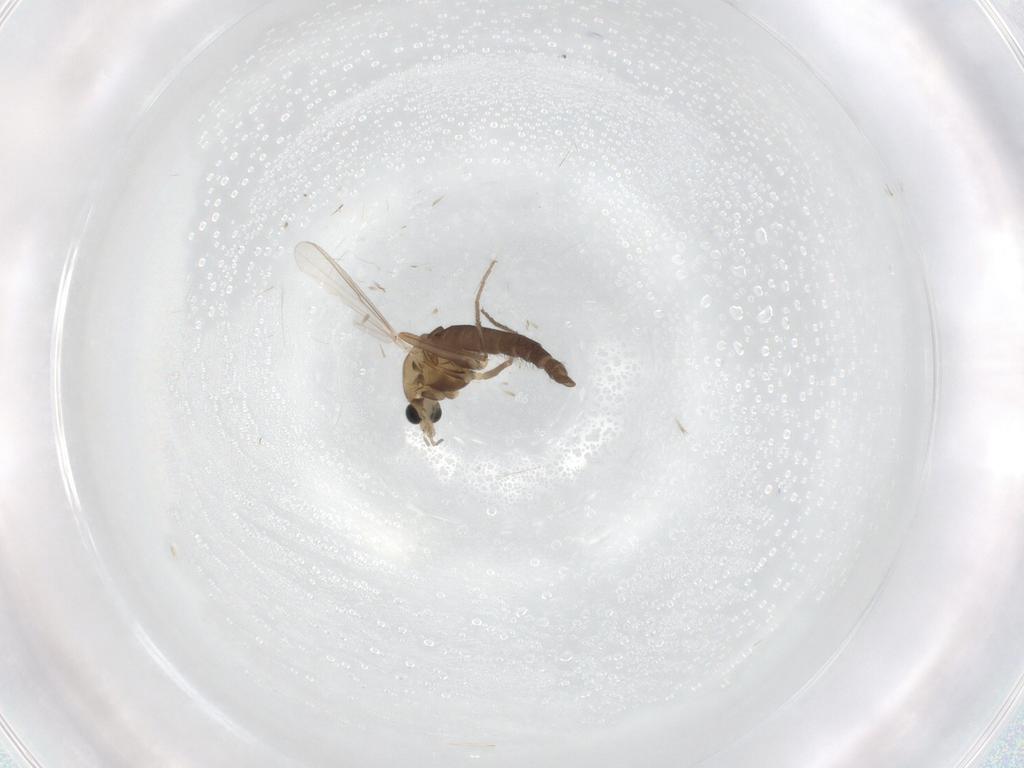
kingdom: Animalia
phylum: Arthropoda
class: Insecta
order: Diptera
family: Chironomidae
